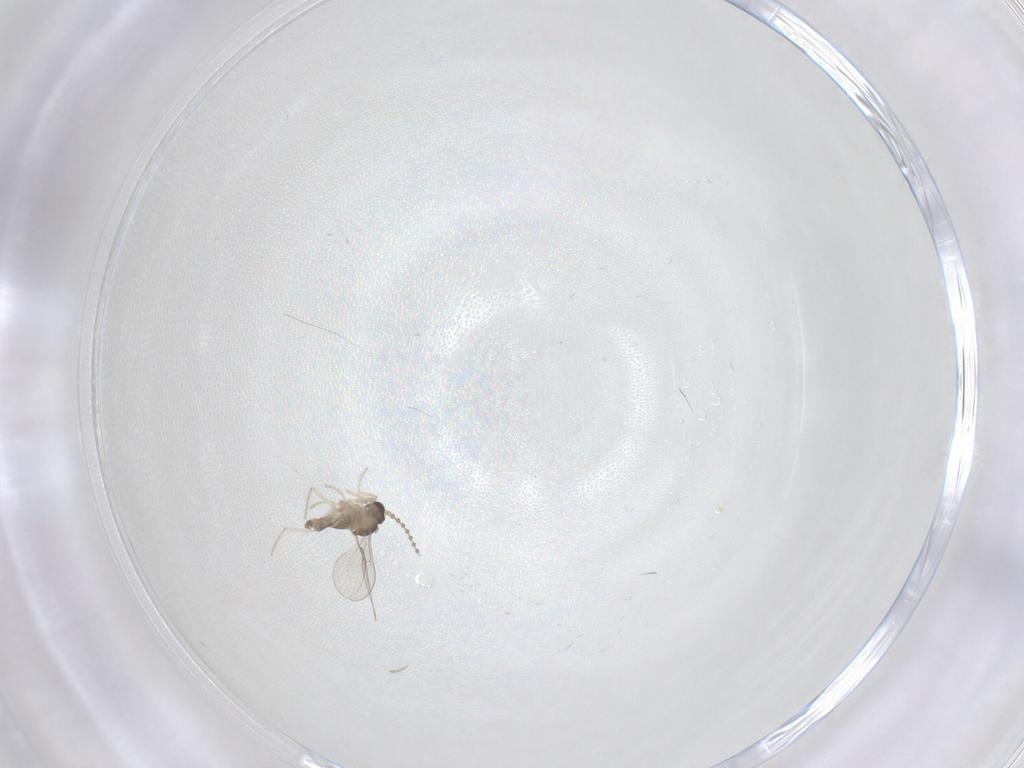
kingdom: Animalia
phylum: Arthropoda
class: Insecta
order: Diptera
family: Cecidomyiidae
